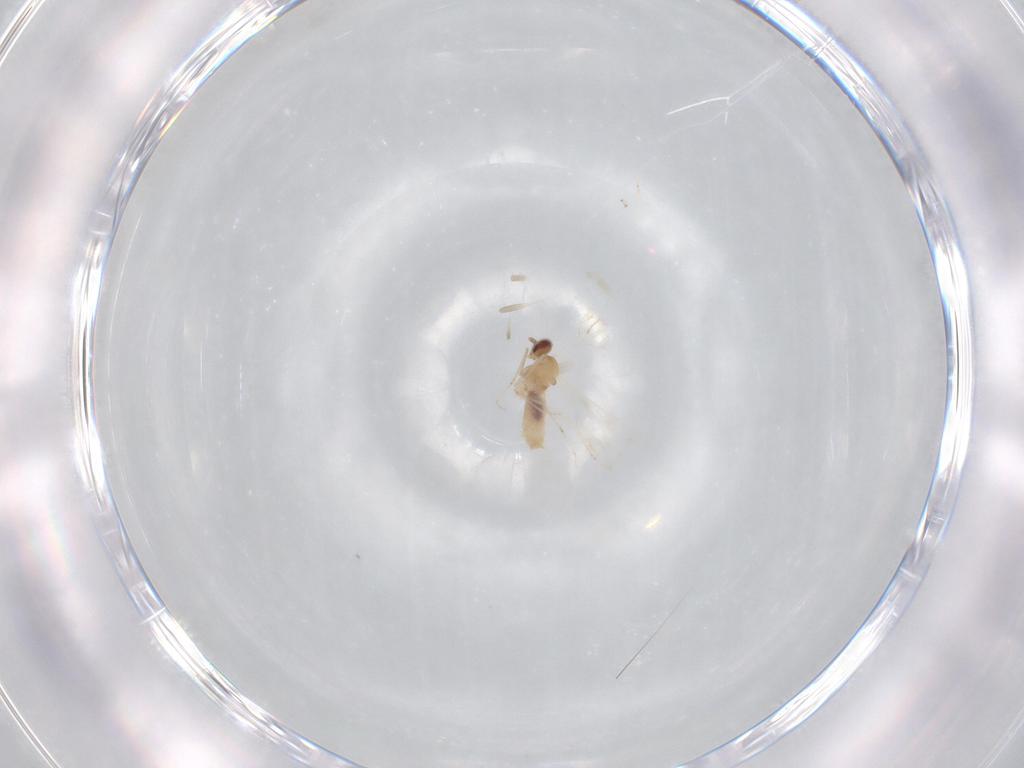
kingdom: Animalia
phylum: Arthropoda
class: Insecta
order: Diptera
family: Cecidomyiidae
